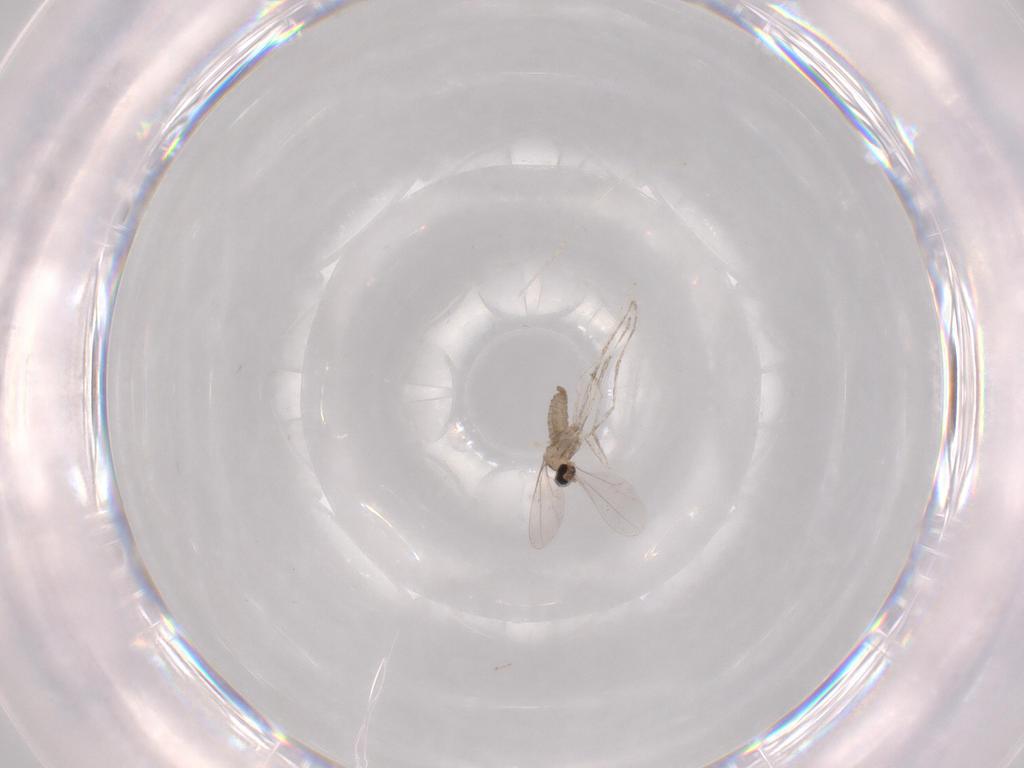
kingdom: Animalia
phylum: Arthropoda
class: Insecta
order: Diptera
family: Cecidomyiidae
